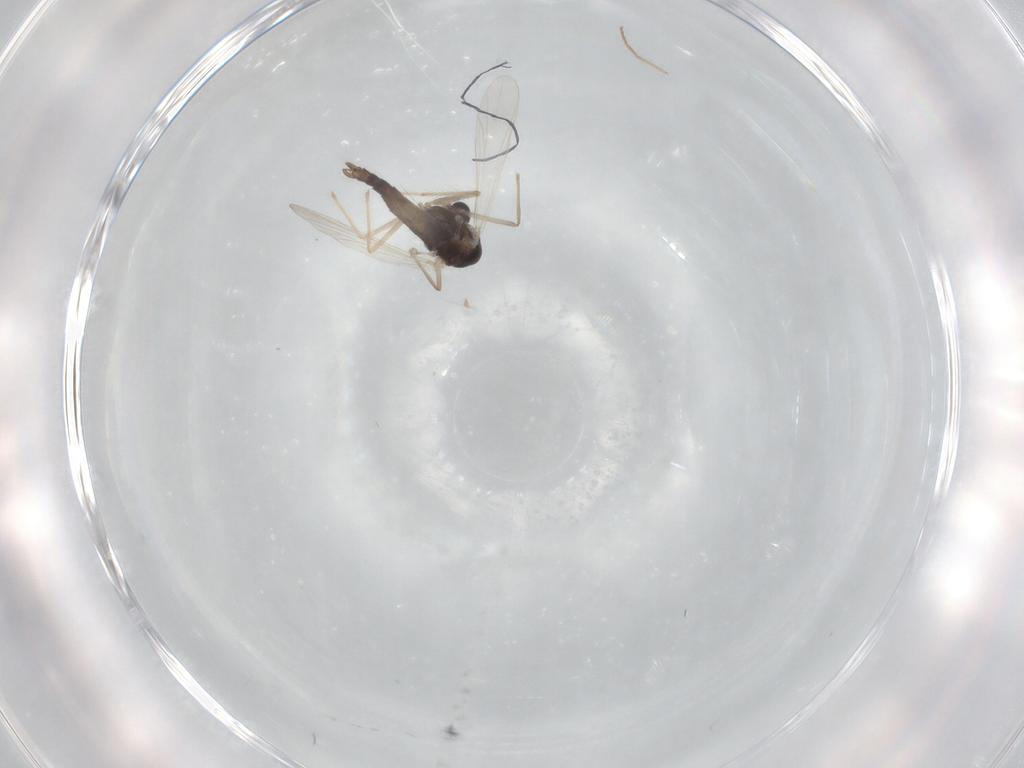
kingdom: Animalia
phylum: Arthropoda
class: Insecta
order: Diptera
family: Chironomidae
